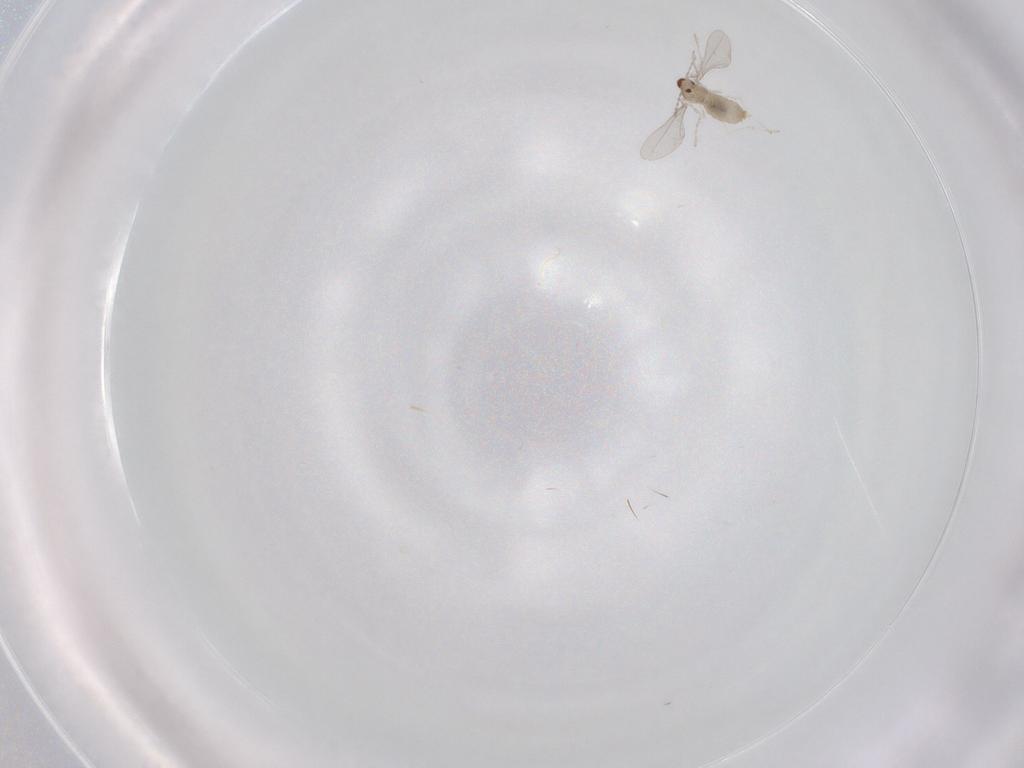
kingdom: Animalia
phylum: Arthropoda
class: Insecta
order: Diptera
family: Cecidomyiidae
